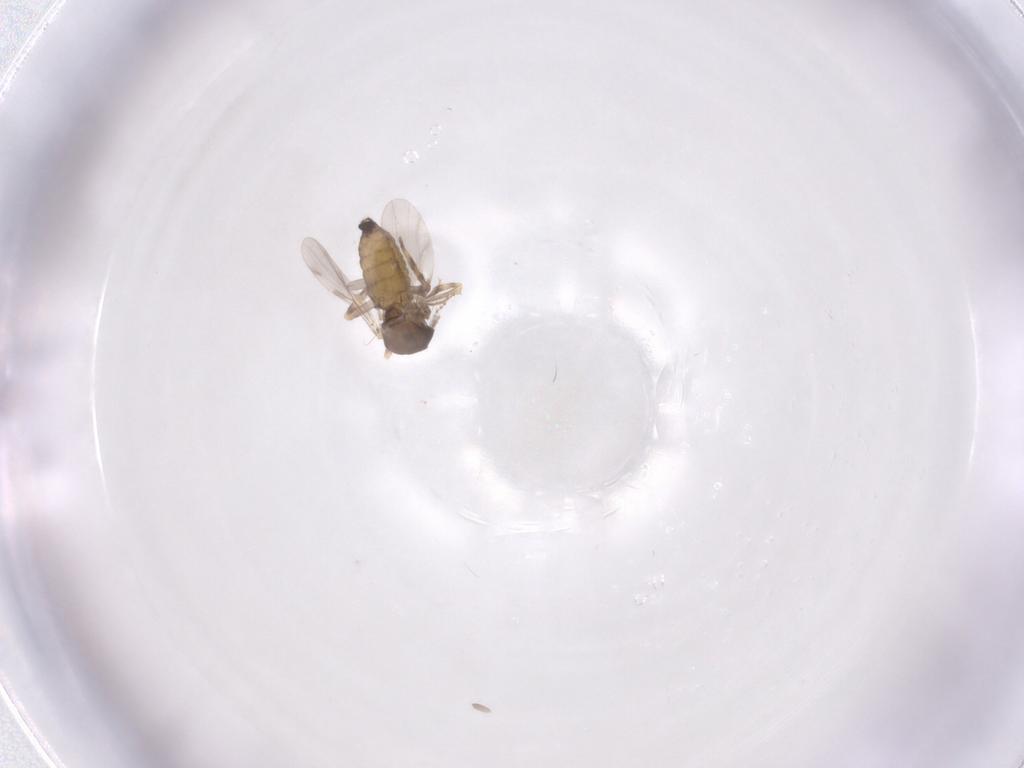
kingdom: Animalia
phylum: Arthropoda
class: Insecta
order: Diptera
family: Ceratopogonidae
